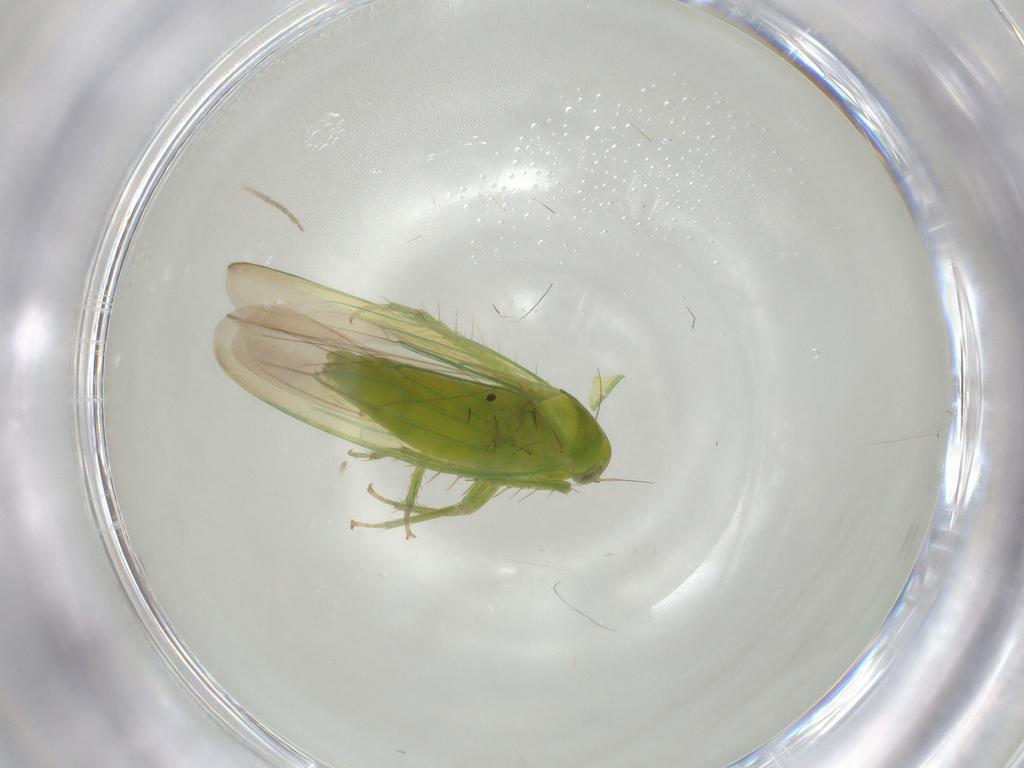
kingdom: Animalia
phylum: Arthropoda
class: Insecta
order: Hemiptera
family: Cicadellidae
